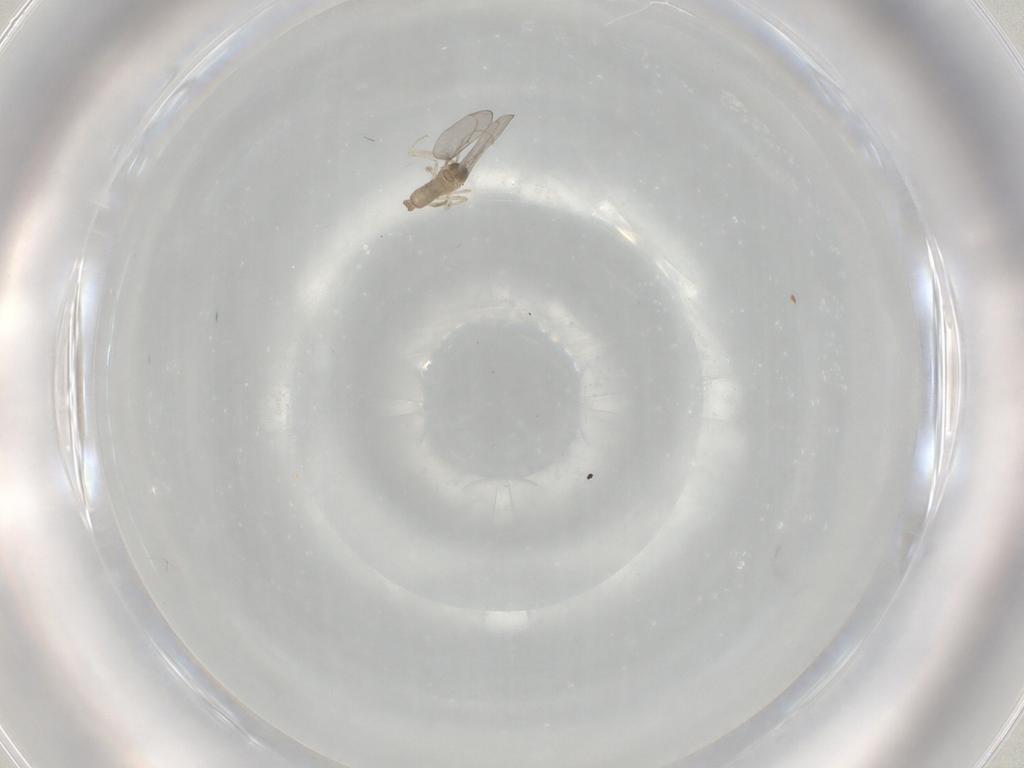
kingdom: Animalia
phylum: Arthropoda
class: Insecta
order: Diptera
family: Cecidomyiidae
